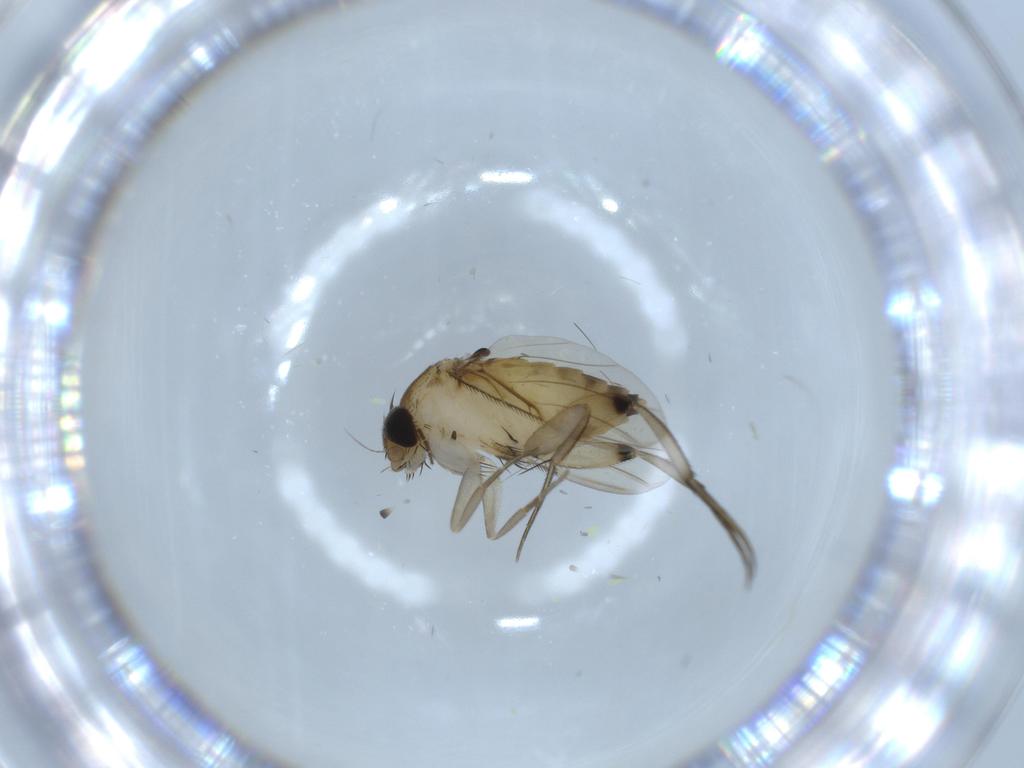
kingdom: Animalia
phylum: Arthropoda
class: Insecta
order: Diptera
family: Phoridae
